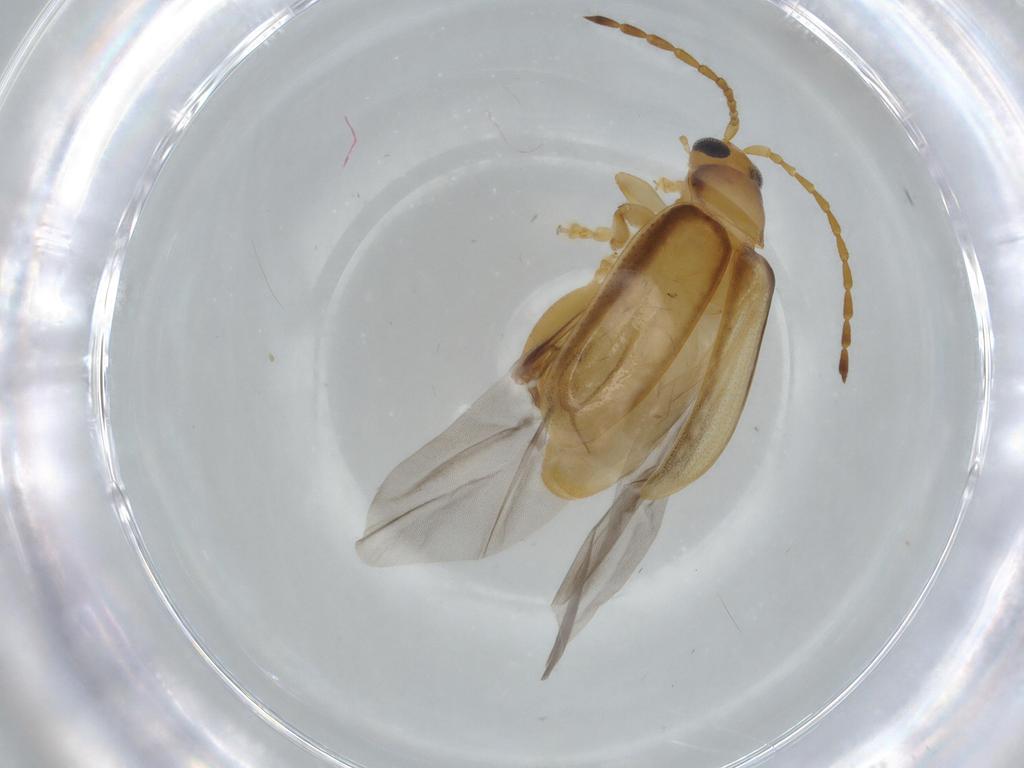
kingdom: Animalia
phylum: Arthropoda
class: Insecta
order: Coleoptera
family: Chrysomelidae
